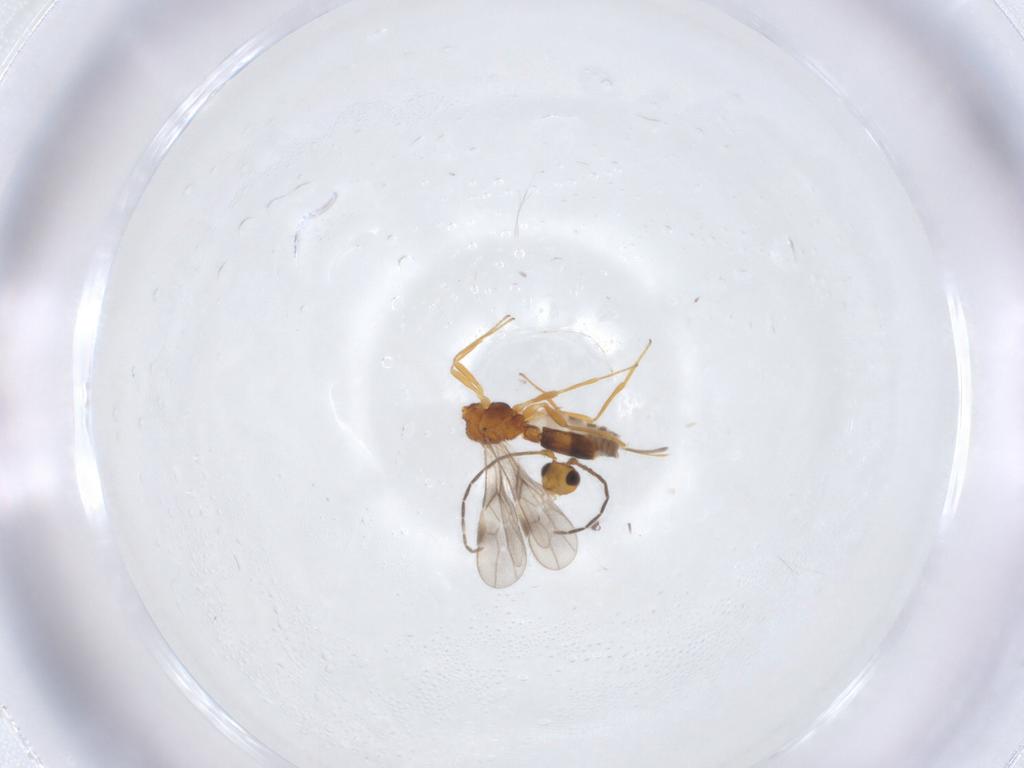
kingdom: Animalia
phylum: Arthropoda
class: Insecta
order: Hymenoptera
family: Braconidae
